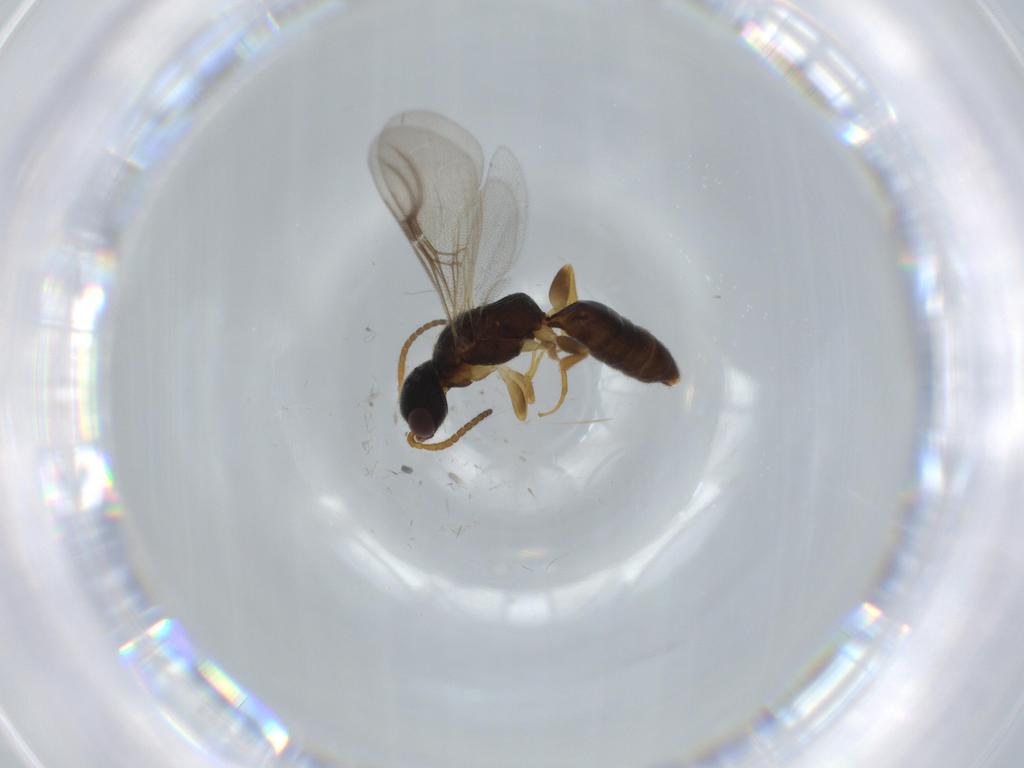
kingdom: Animalia
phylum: Arthropoda
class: Insecta
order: Hymenoptera
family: Bethylidae
